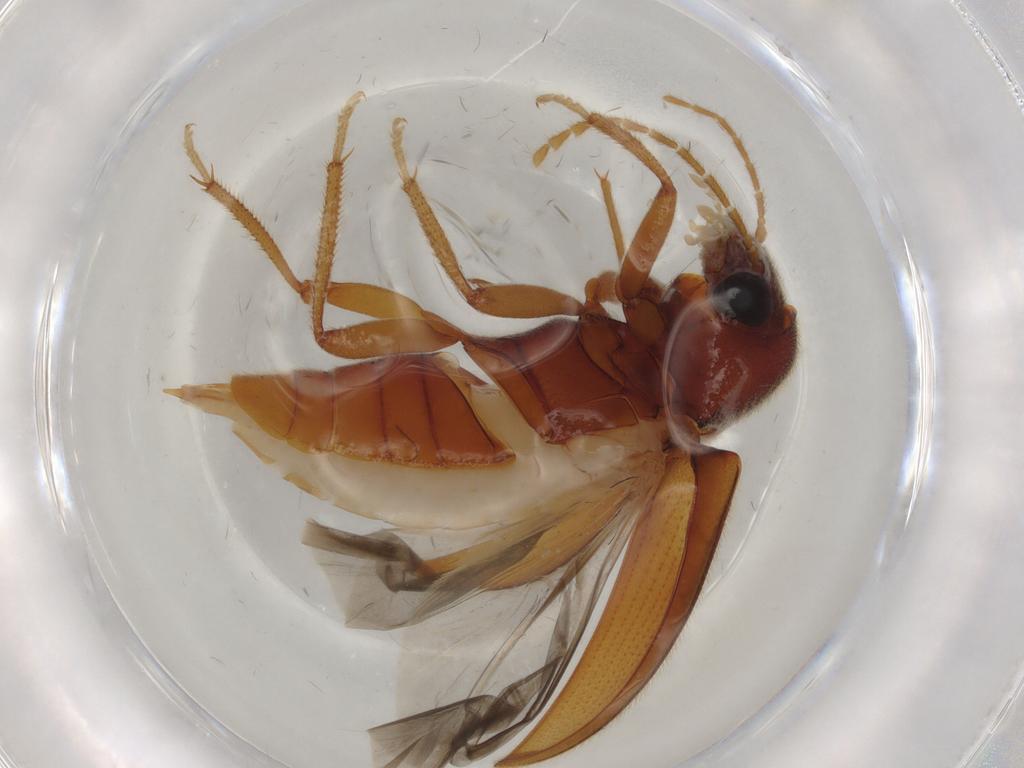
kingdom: Animalia
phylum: Arthropoda
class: Insecta
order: Coleoptera
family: Ptilodactylidae
